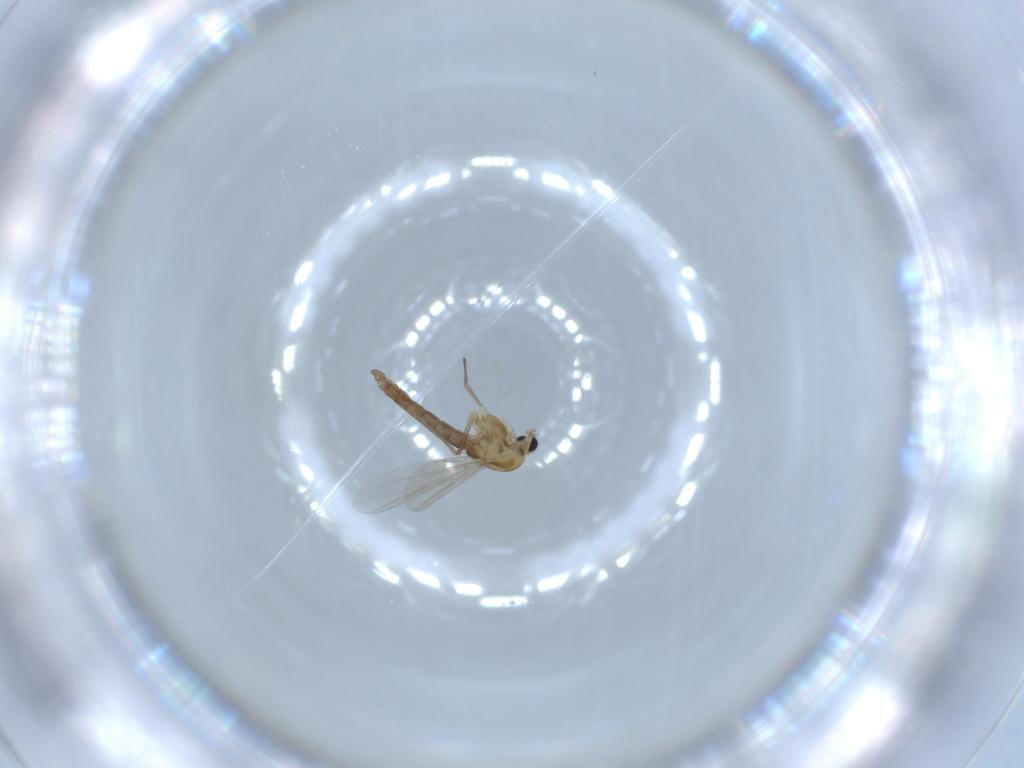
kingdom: Animalia
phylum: Arthropoda
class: Insecta
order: Diptera
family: Chironomidae
